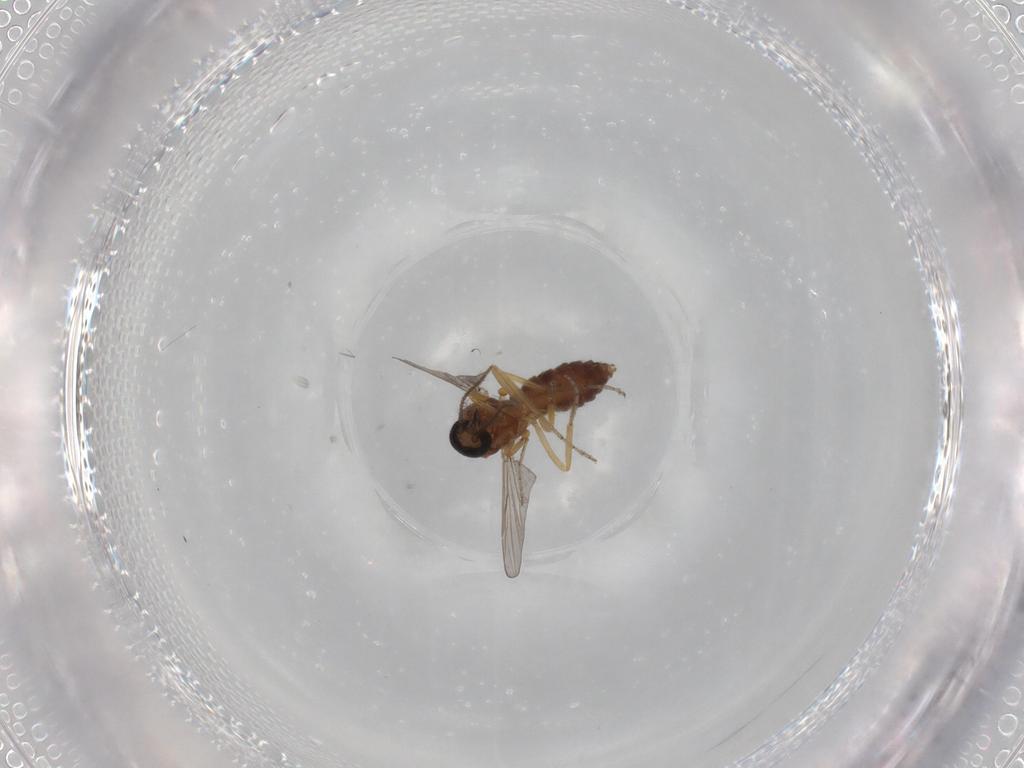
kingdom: Animalia
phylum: Arthropoda
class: Insecta
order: Diptera
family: Ceratopogonidae
